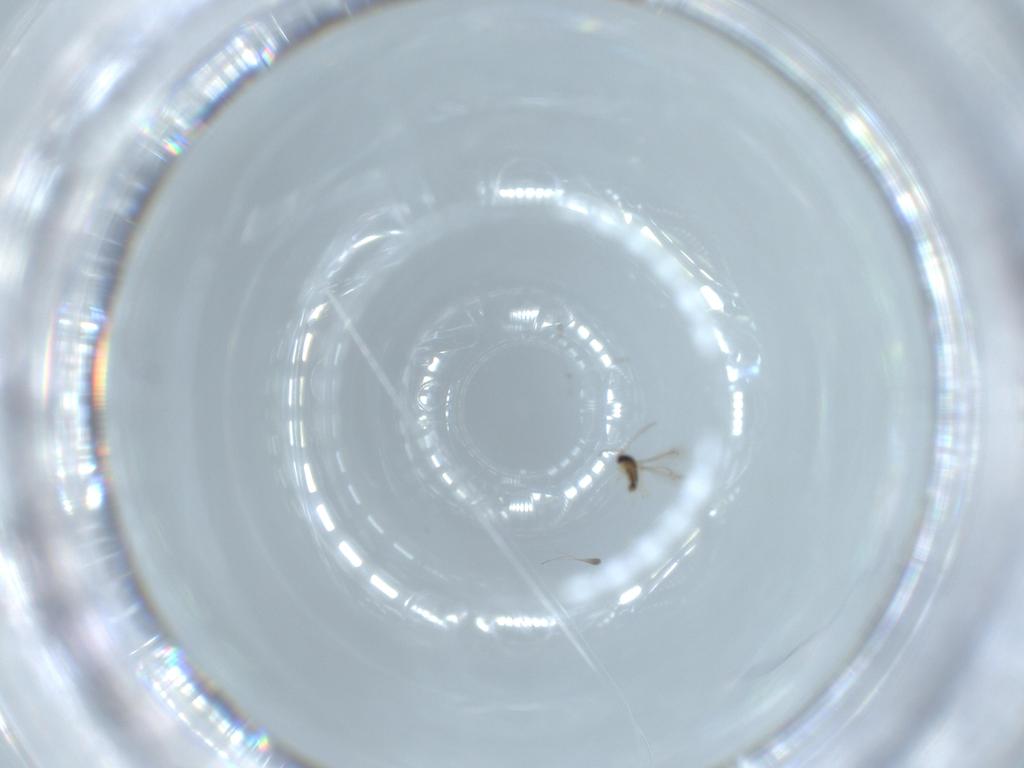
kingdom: Animalia
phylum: Arthropoda
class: Insecta
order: Hymenoptera
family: Mymaridae
